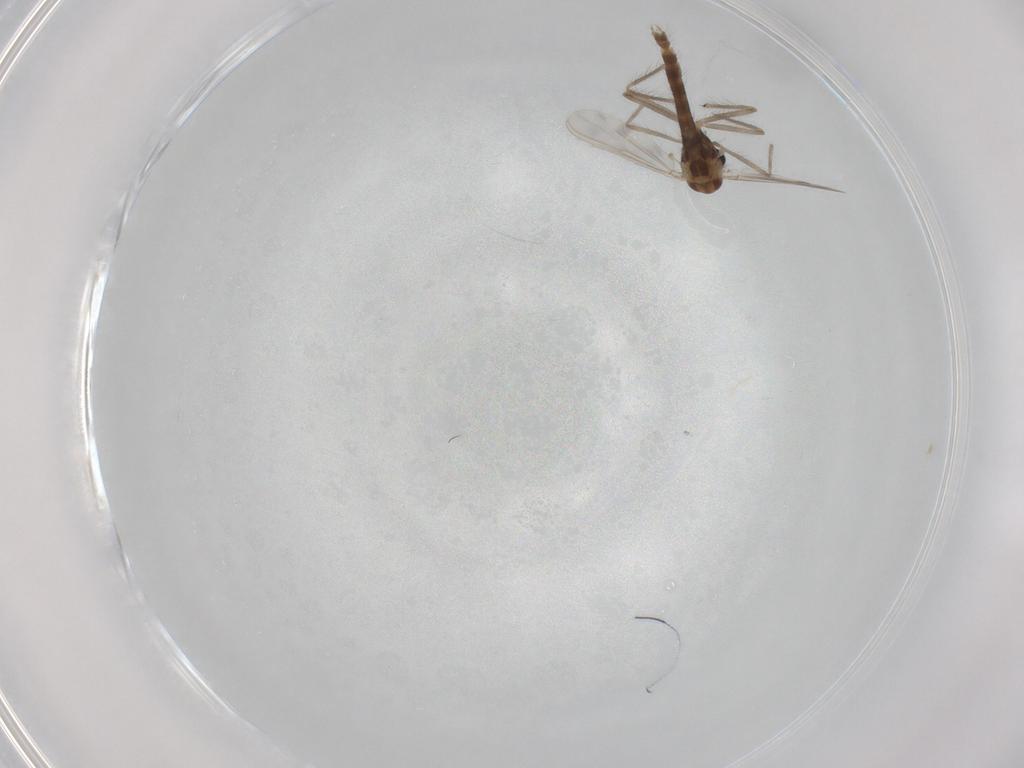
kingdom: Animalia
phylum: Arthropoda
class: Insecta
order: Diptera
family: Chironomidae
